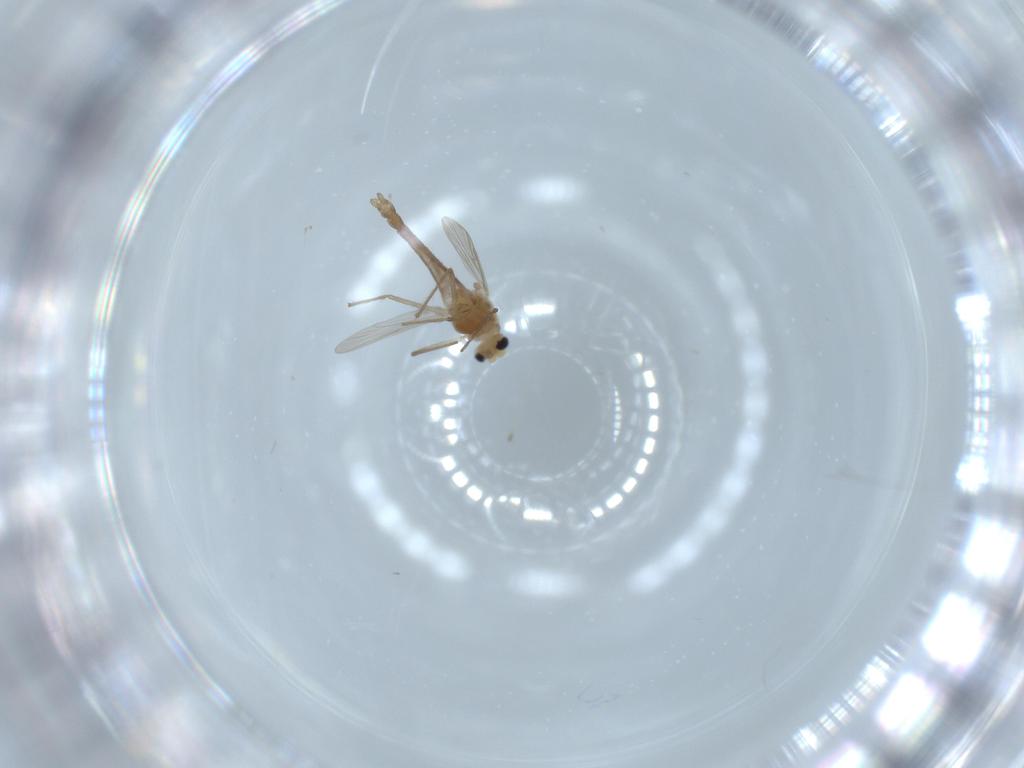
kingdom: Animalia
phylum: Arthropoda
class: Insecta
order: Diptera
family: Chironomidae
